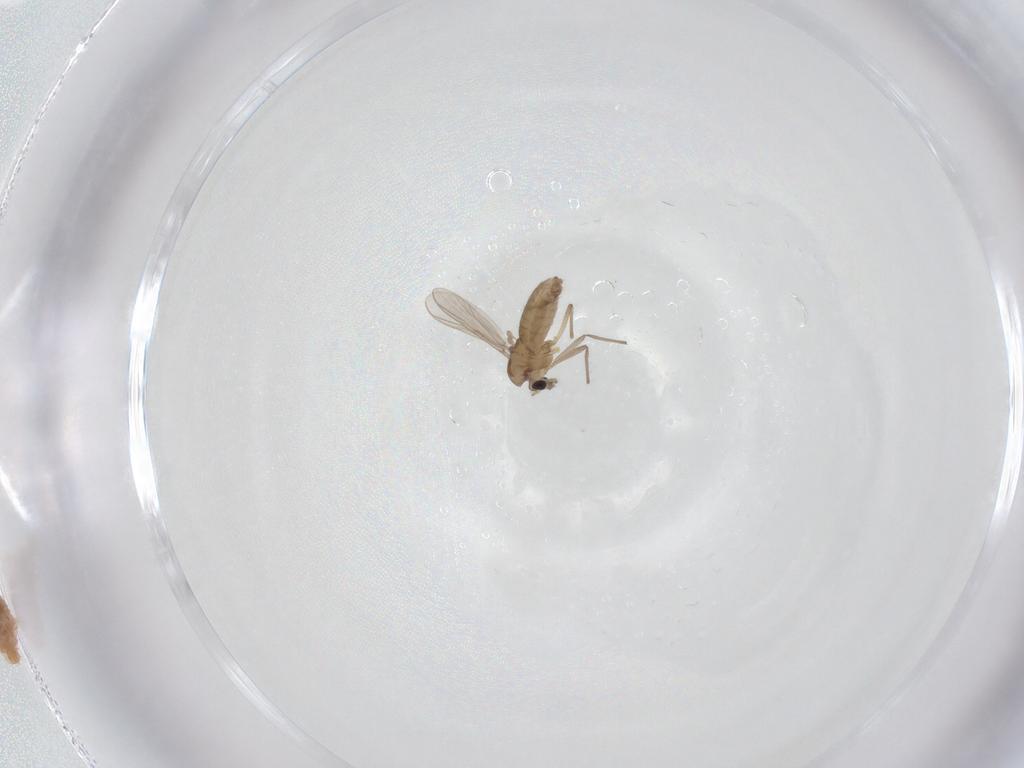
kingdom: Animalia
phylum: Arthropoda
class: Insecta
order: Diptera
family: Chironomidae
